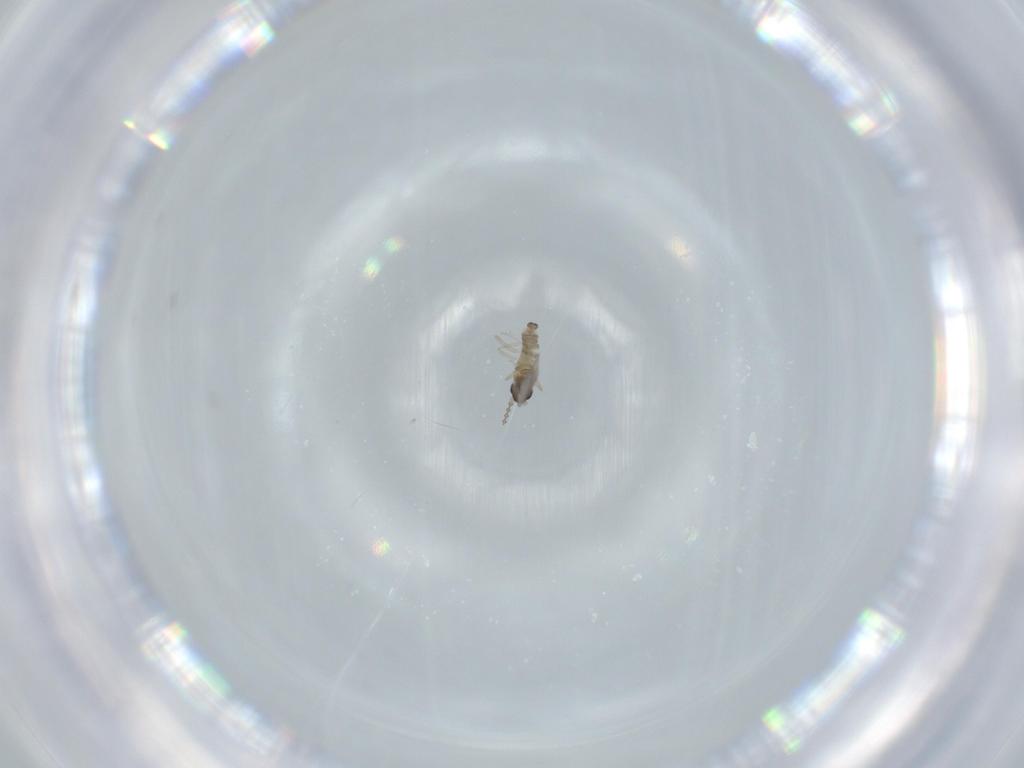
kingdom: Animalia
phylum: Arthropoda
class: Insecta
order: Diptera
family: Cecidomyiidae
